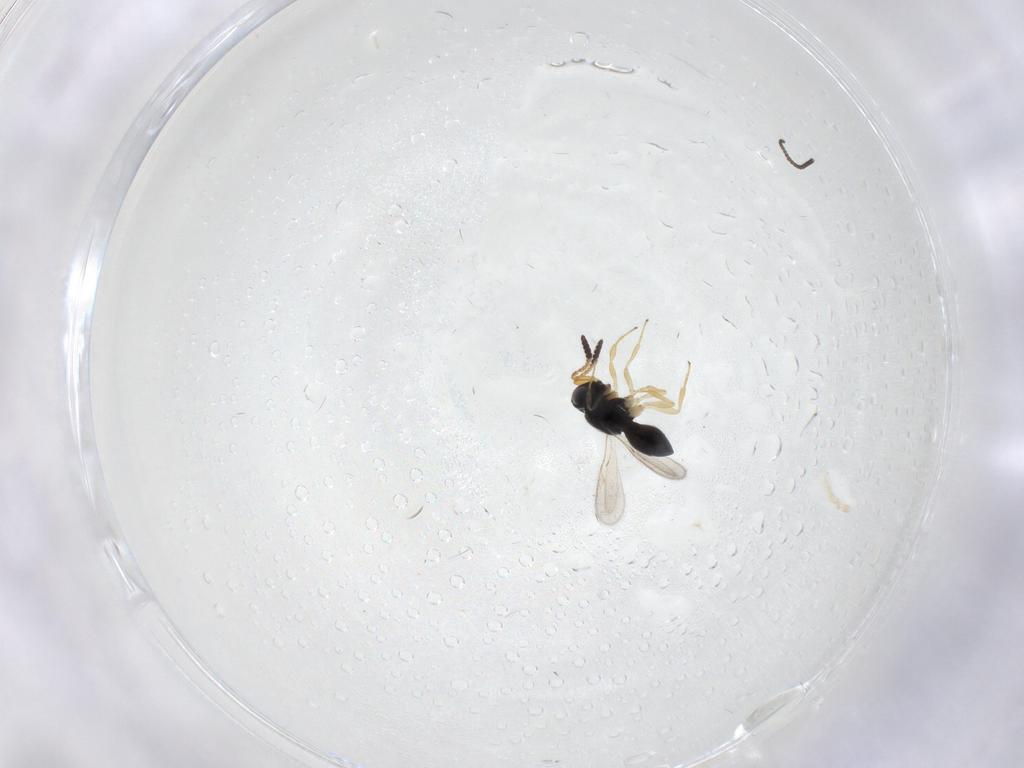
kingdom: Animalia
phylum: Arthropoda
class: Insecta
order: Hymenoptera
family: Scelionidae
